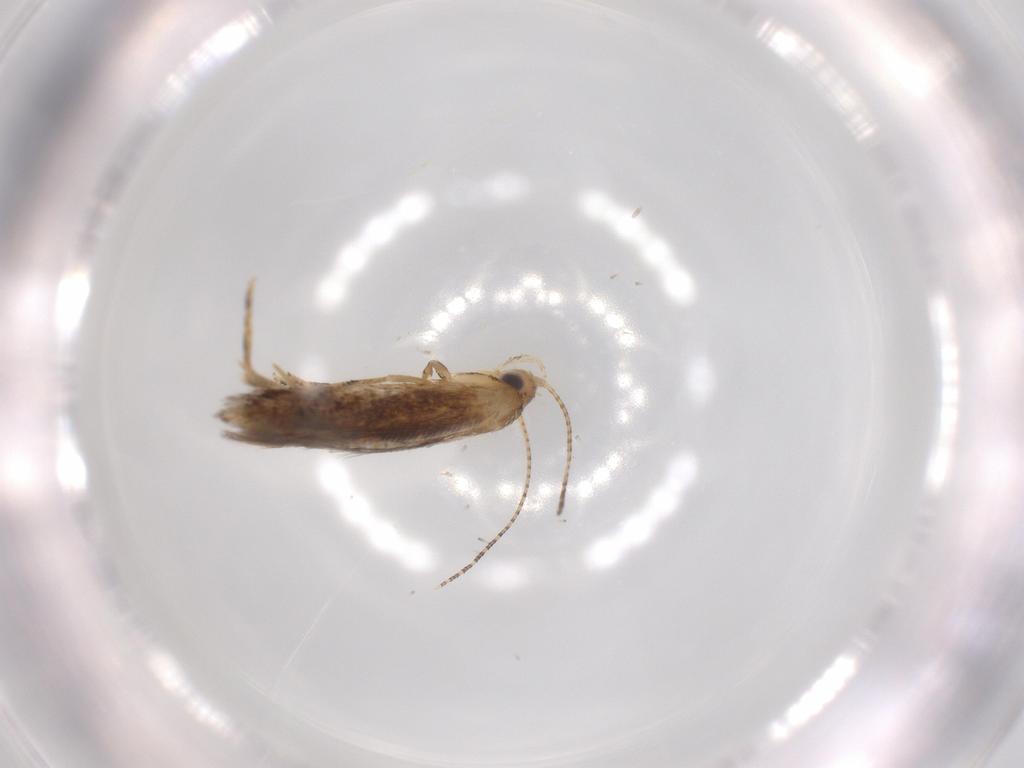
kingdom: Animalia
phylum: Arthropoda
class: Insecta
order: Lepidoptera
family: Momphidae
